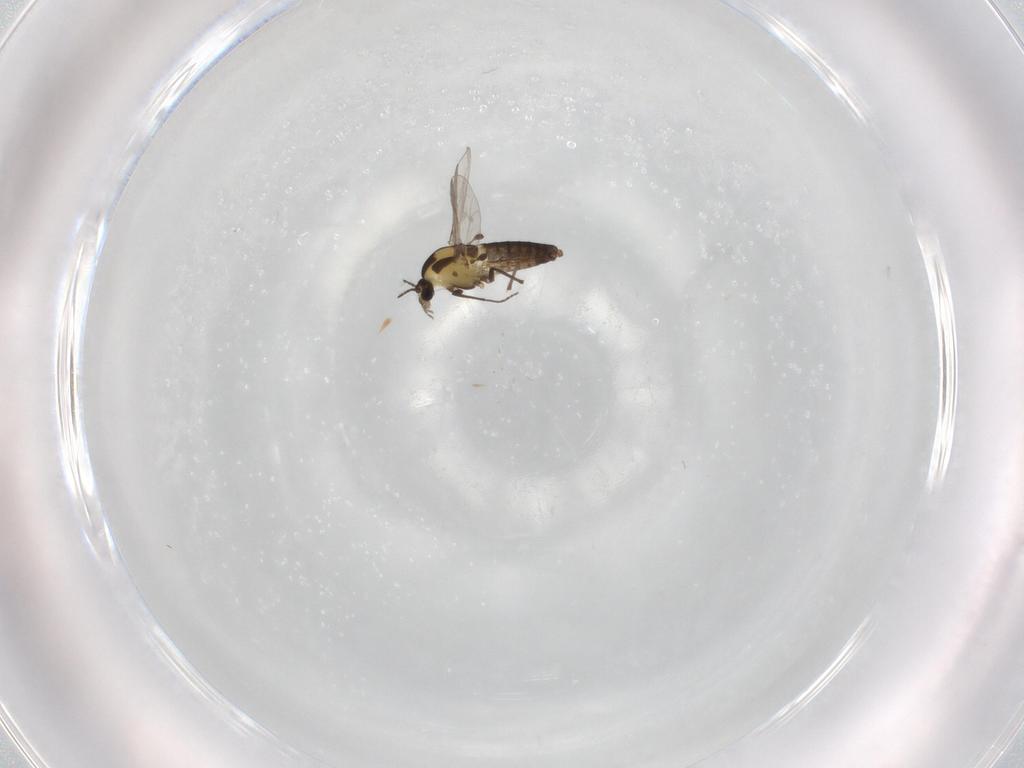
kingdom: Animalia
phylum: Arthropoda
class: Insecta
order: Diptera
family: Chironomidae
